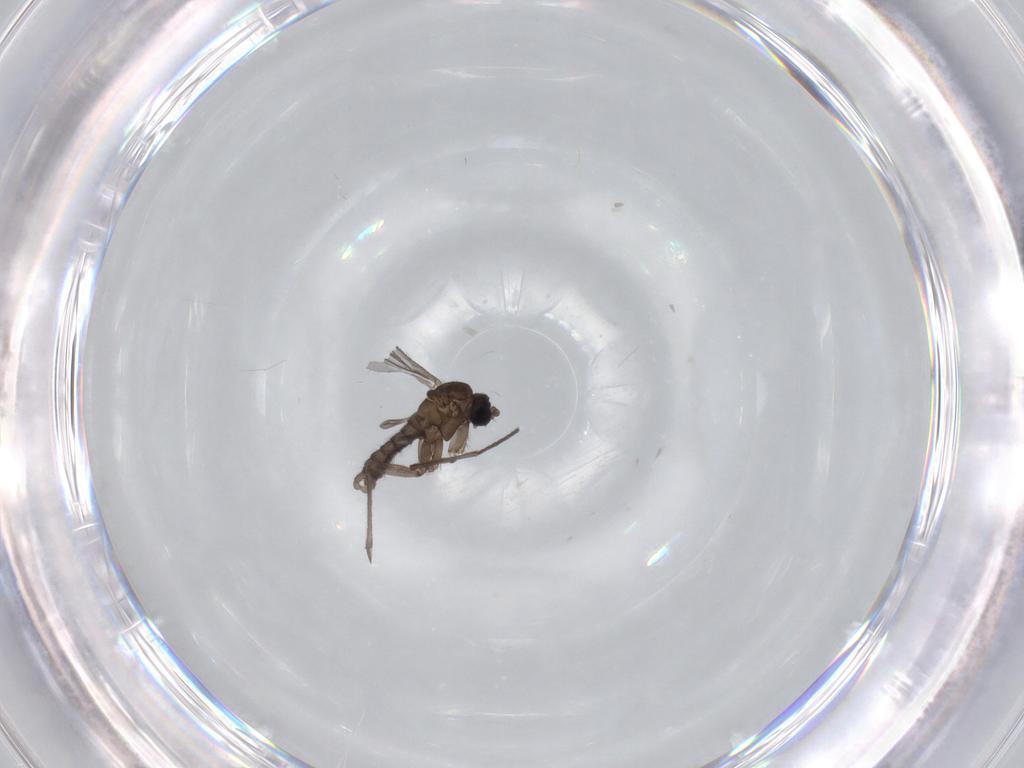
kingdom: Animalia
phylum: Arthropoda
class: Insecta
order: Diptera
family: Sciaridae
